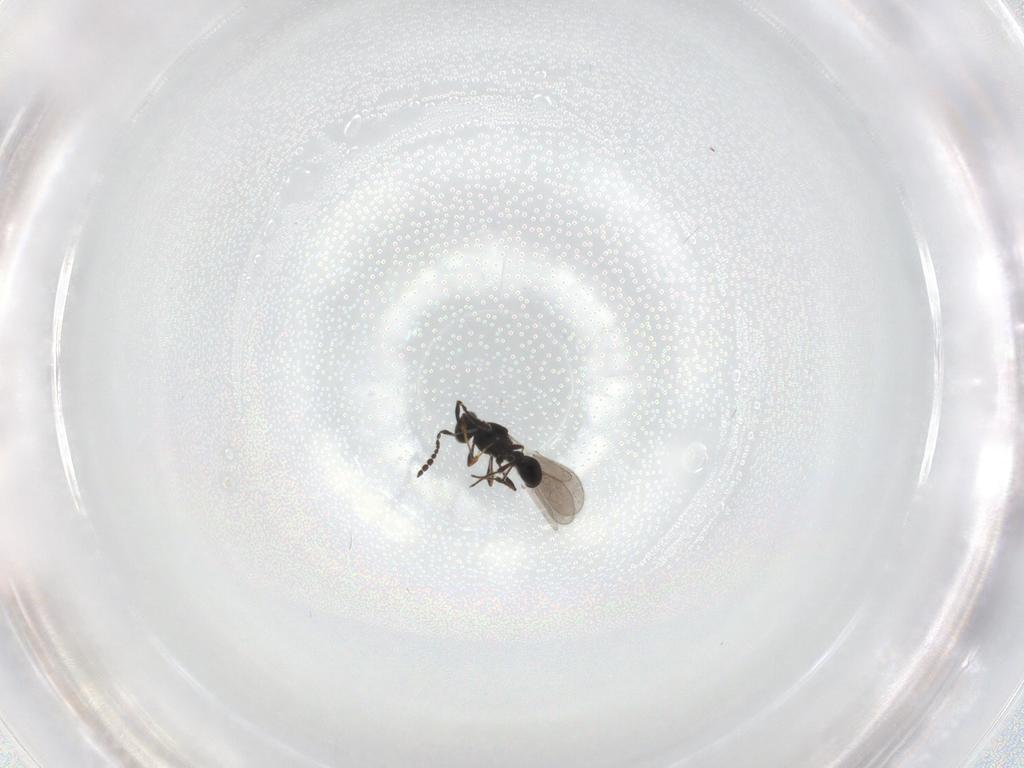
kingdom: Animalia
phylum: Arthropoda
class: Insecta
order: Hymenoptera
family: Platygastridae
